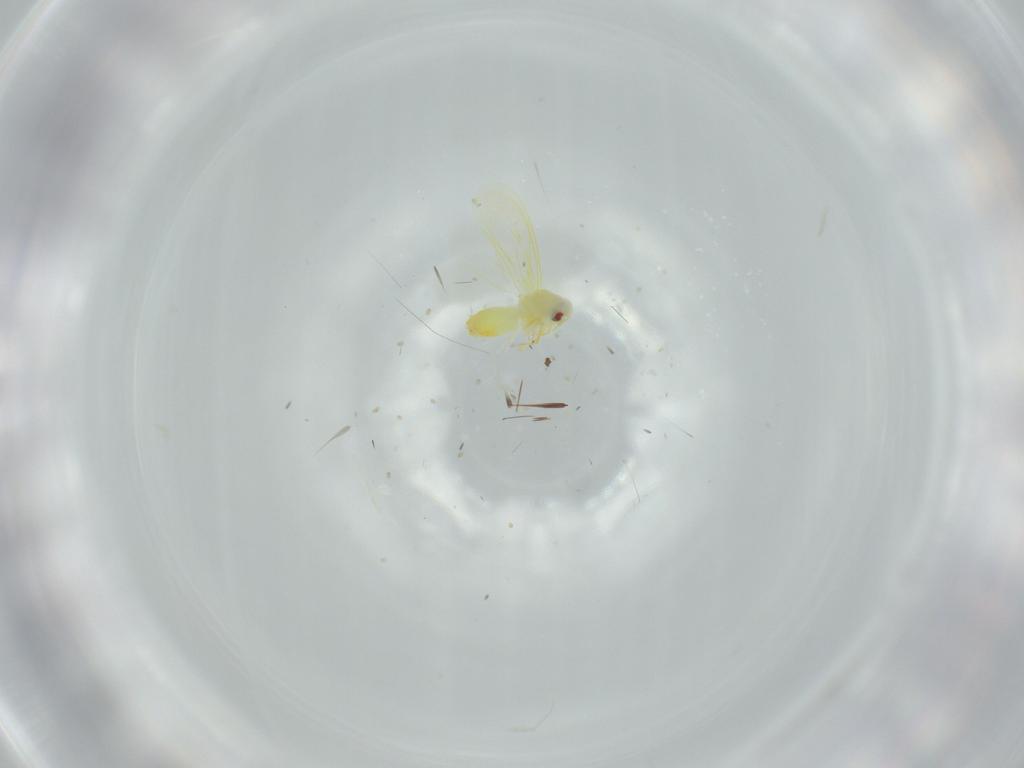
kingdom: Animalia
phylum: Arthropoda
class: Insecta
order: Hemiptera
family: Aleyrodidae
